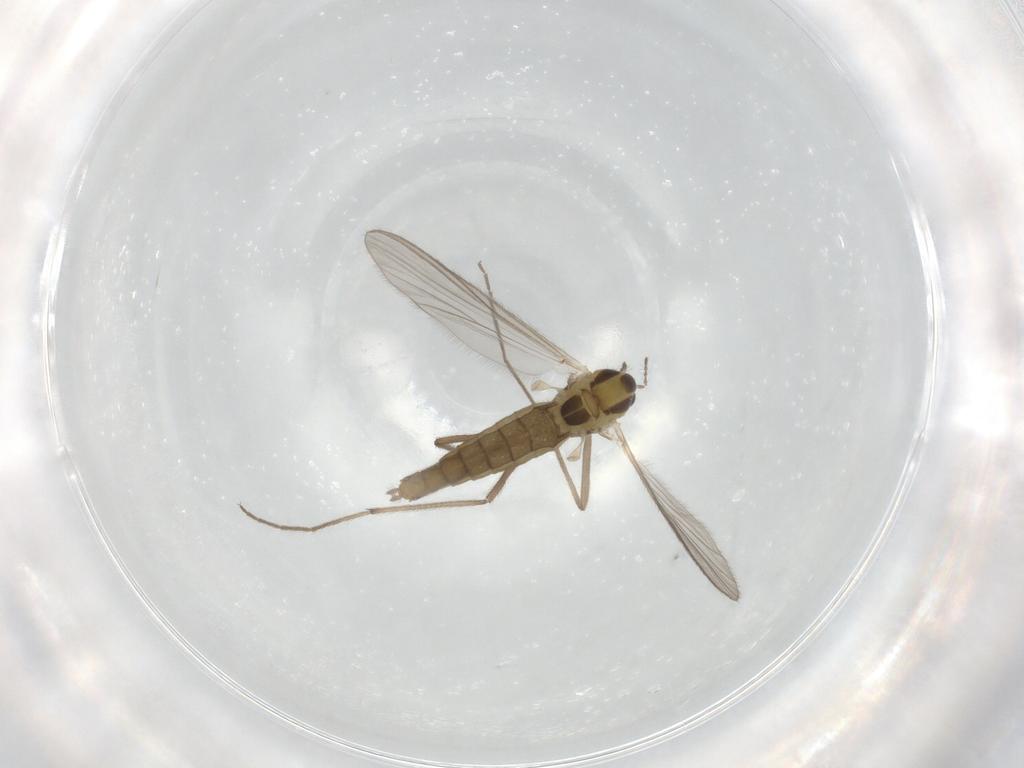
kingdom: Animalia
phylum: Arthropoda
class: Insecta
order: Diptera
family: Chironomidae
